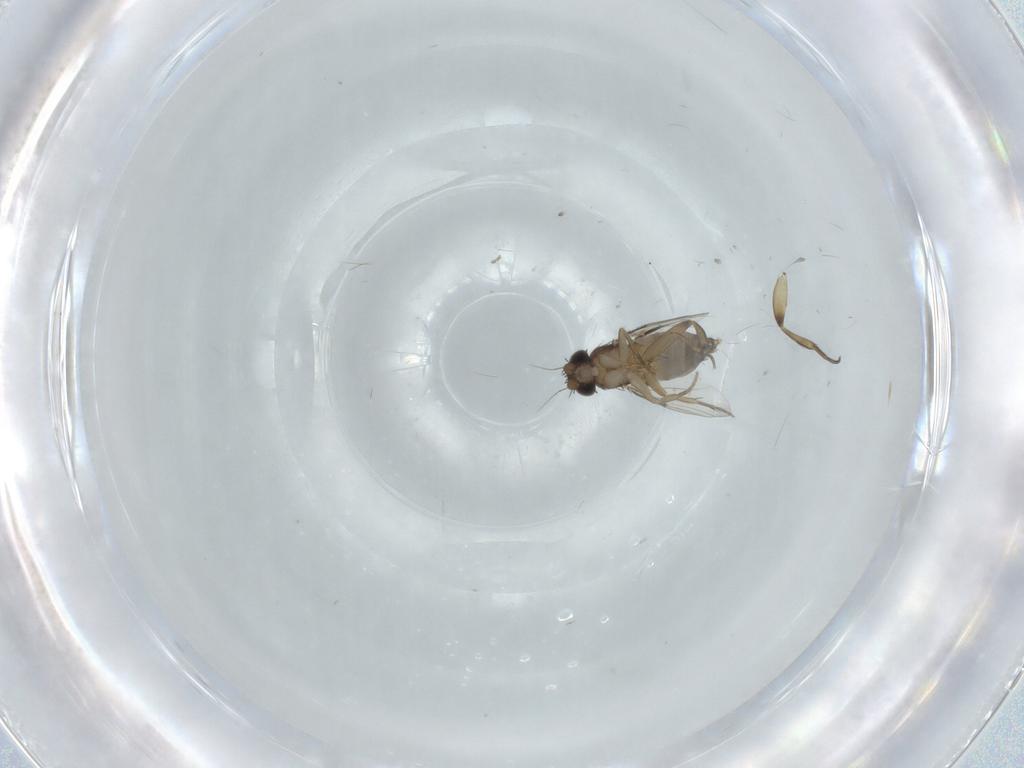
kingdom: Animalia
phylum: Arthropoda
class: Insecta
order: Diptera
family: Phoridae
